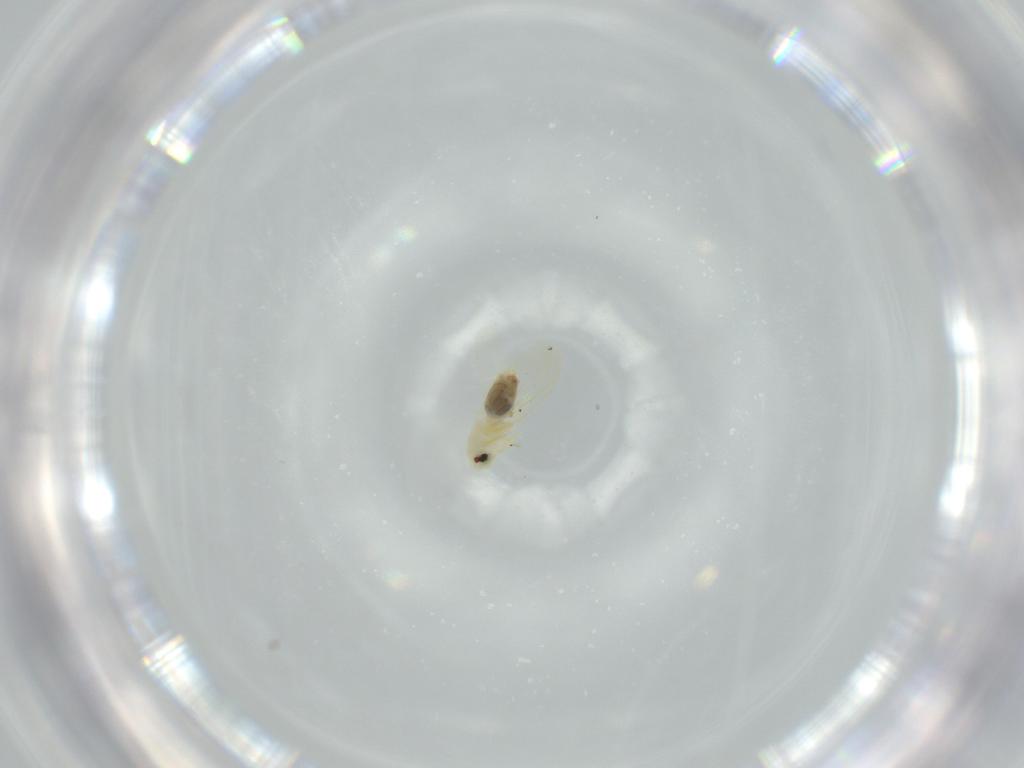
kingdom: Animalia
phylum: Arthropoda
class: Insecta
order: Hemiptera
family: Aleyrodidae
